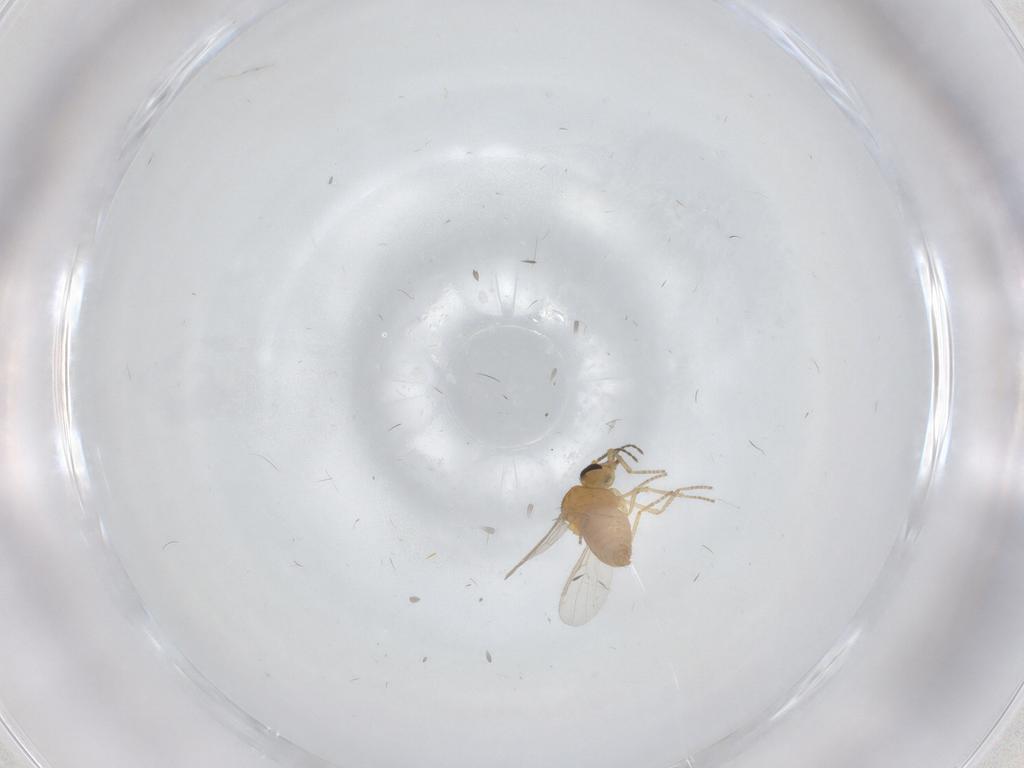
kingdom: Animalia
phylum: Arthropoda
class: Insecta
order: Diptera
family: Ceratopogonidae
